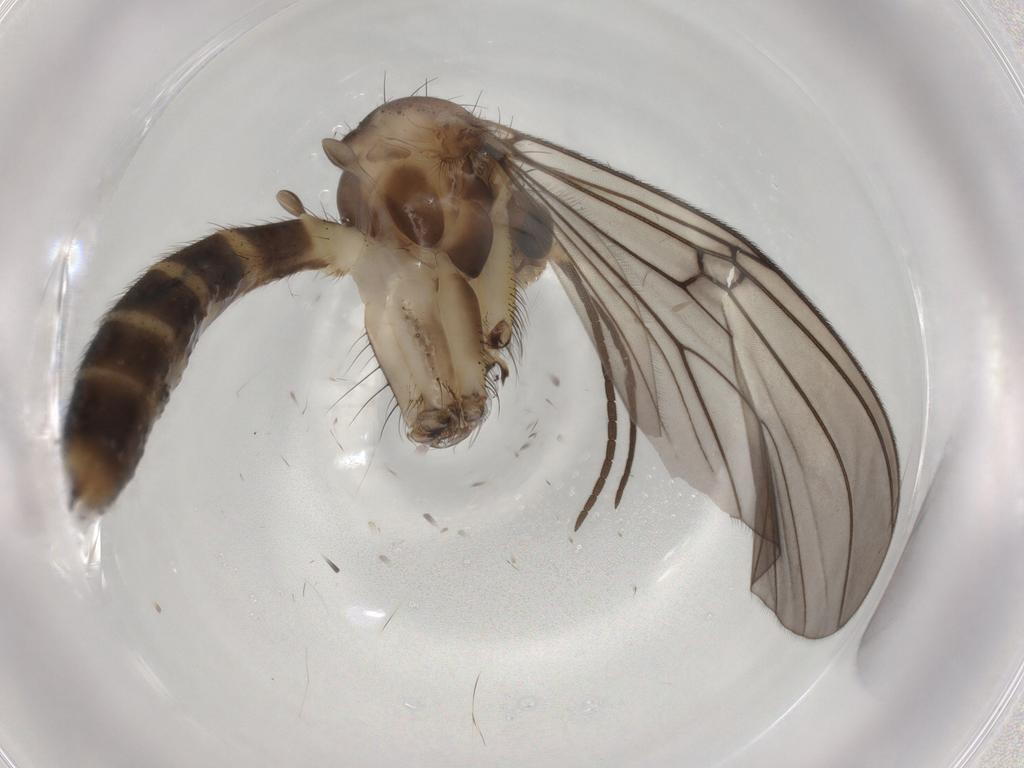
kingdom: Animalia
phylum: Arthropoda
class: Insecta
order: Diptera
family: Mycetophilidae
